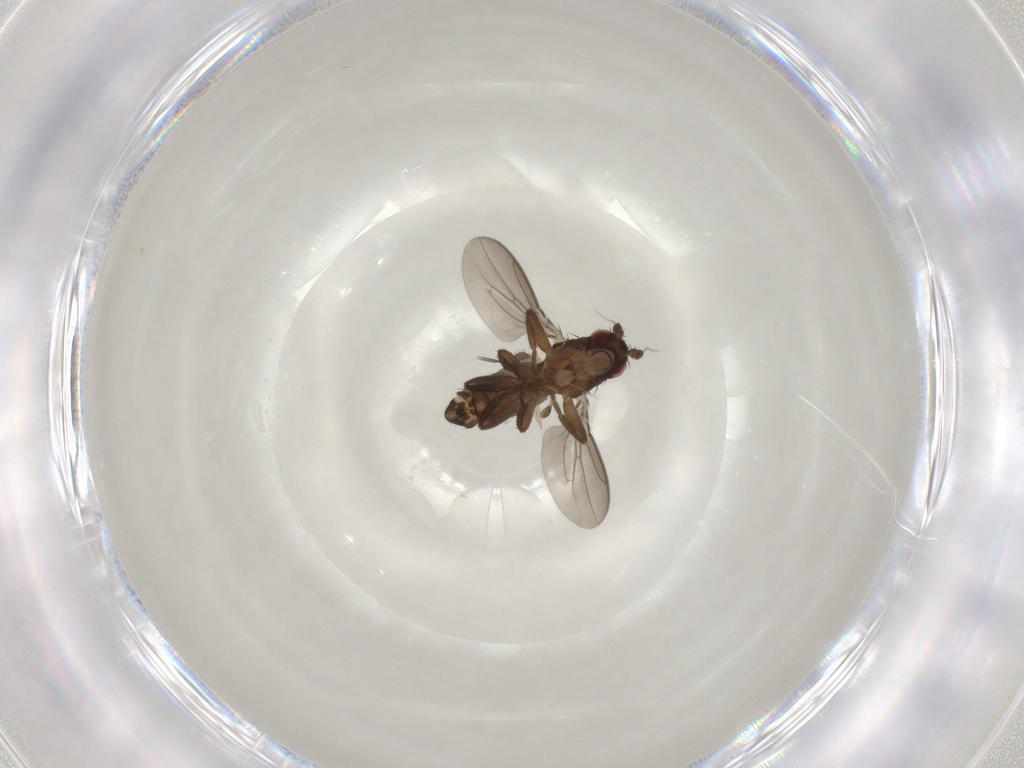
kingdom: Animalia
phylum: Arthropoda
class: Insecta
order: Diptera
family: Sphaeroceridae
